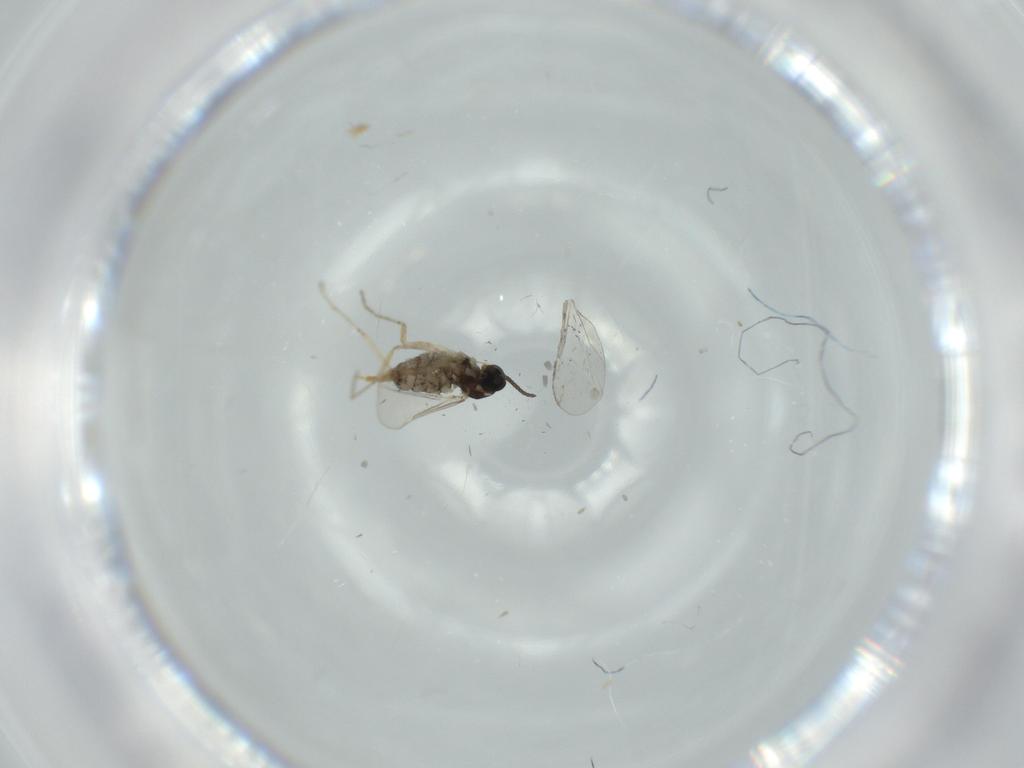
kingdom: Animalia
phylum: Arthropoda
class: Insecta
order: Diptera
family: Cecidomyiidae
